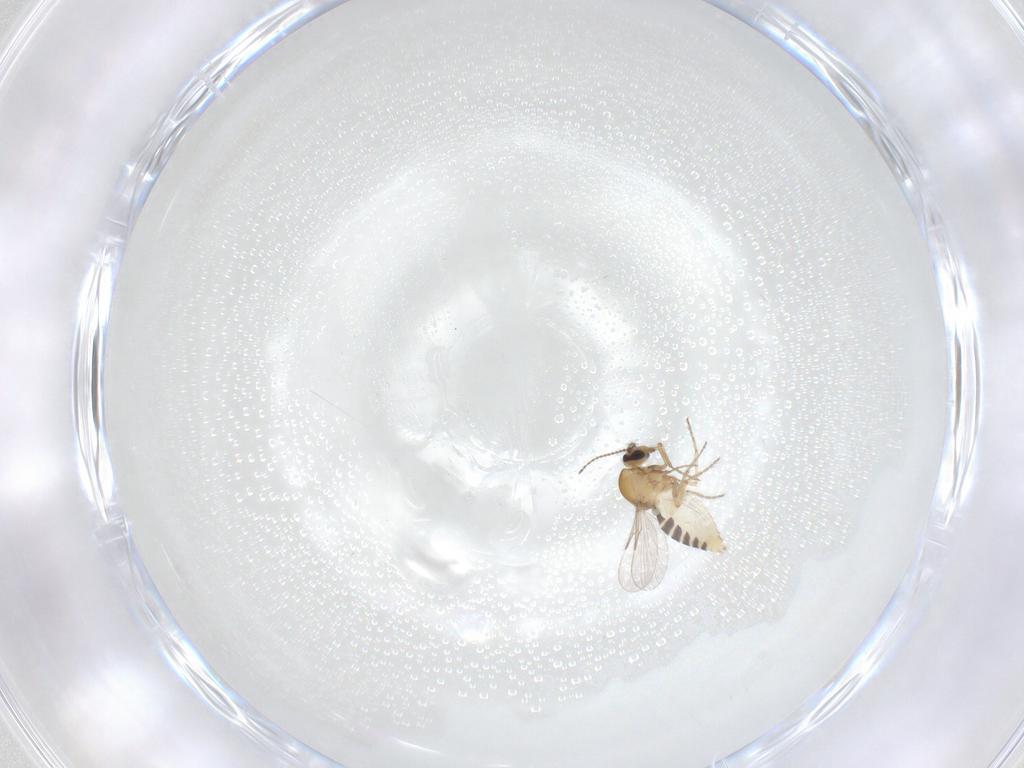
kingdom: Animalia
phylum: Arthropoda
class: Insecta
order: Diptera
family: Ceratopogonidae
